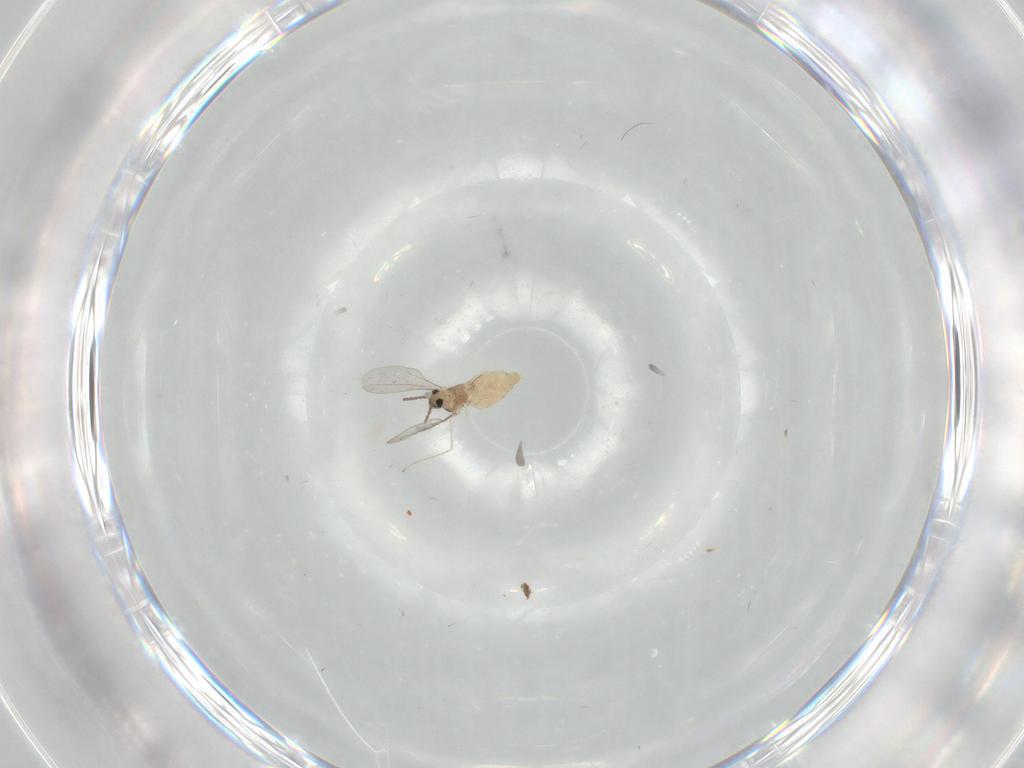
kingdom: Animalia
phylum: Arthropoda
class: Insecta
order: Diptera
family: Cecidomyiidae
